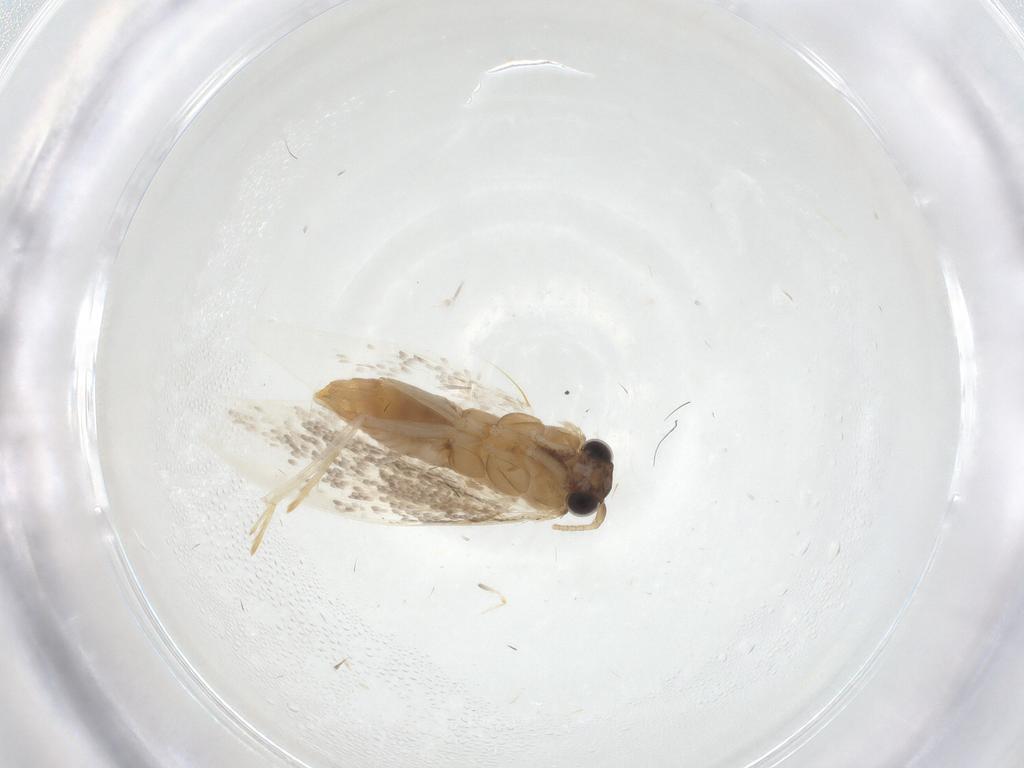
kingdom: Animalia
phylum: Arthropoda
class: Insecta
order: Lepidoptera
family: Tineidae
